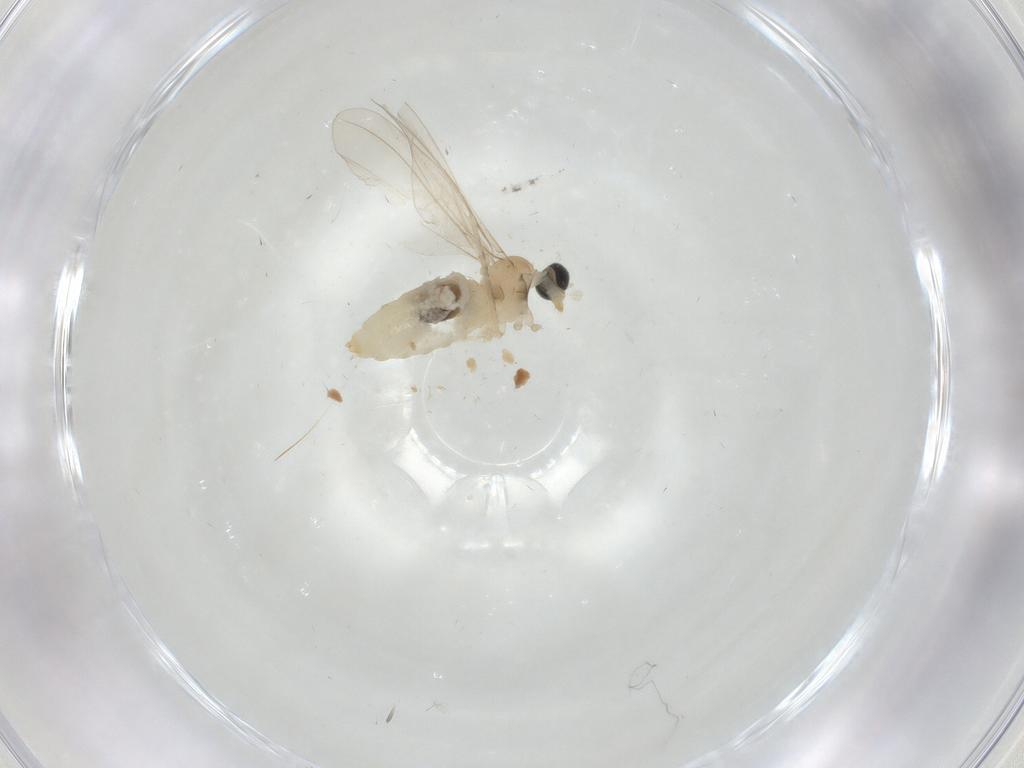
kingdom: Animalia
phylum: Arthropoda
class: Insecta
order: Diptera
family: Cecidomyiidae
